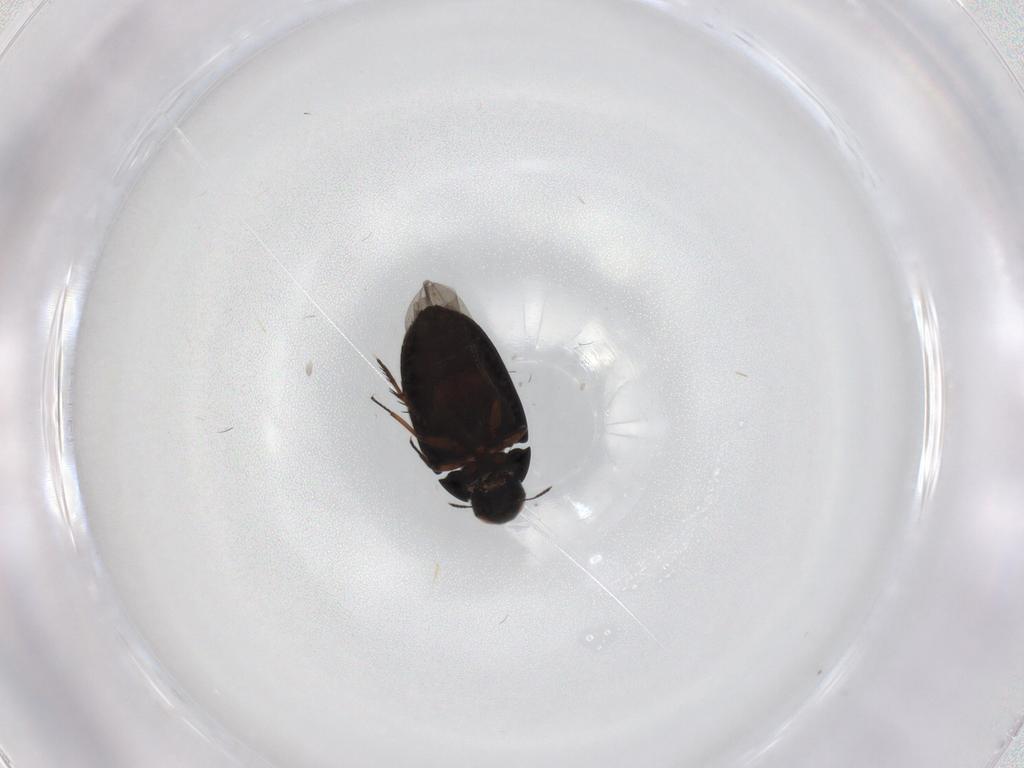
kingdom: Animalia
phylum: Arthropoda
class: Insecta
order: Coleoptera
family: Limnichidae
